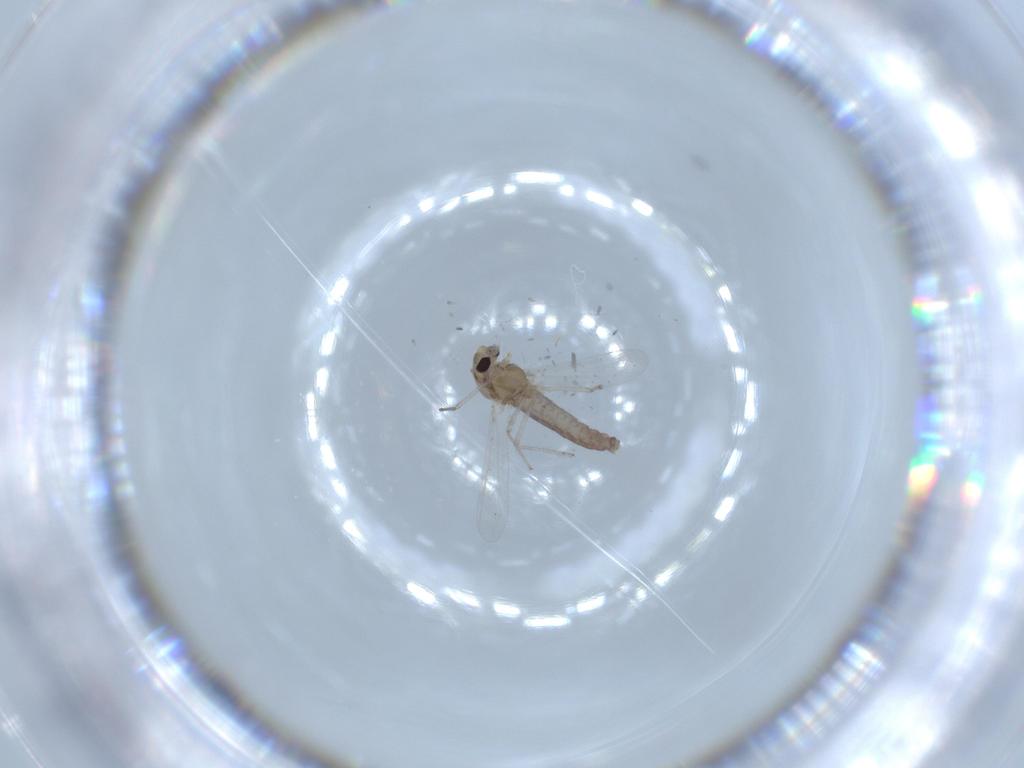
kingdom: Animalia
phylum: Arthropoda
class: Insecta
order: Diptera
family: Chironomidae
